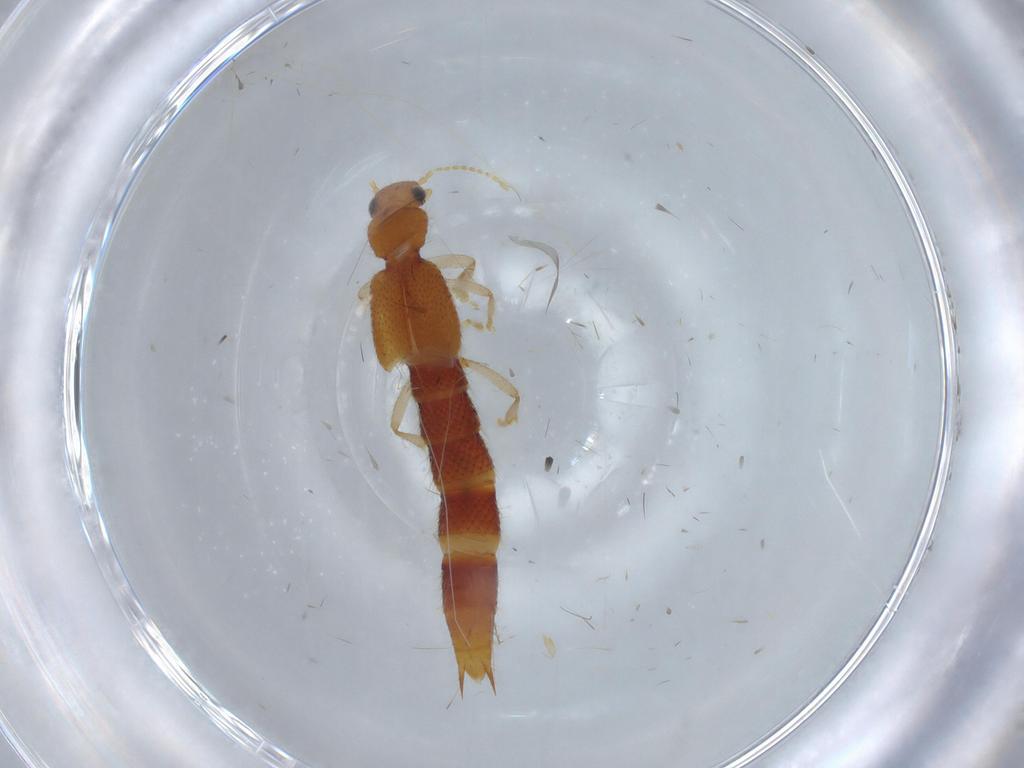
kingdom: Animalia
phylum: Arthropoda
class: Insecta
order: Coleoptera
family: Staphylinidae
